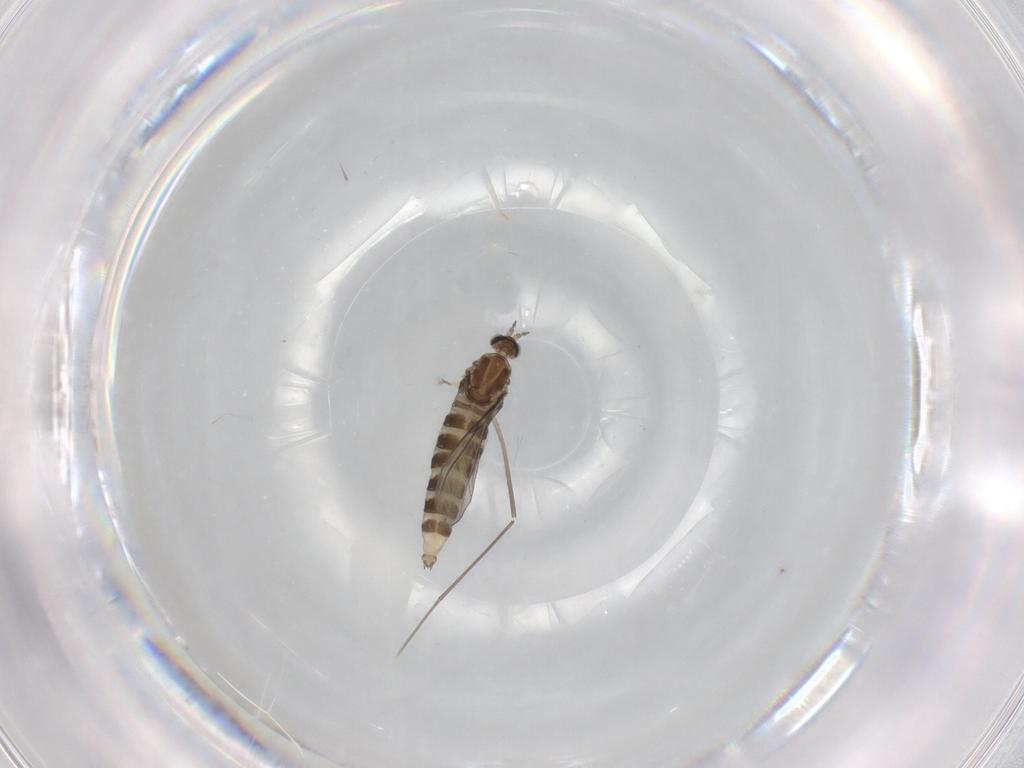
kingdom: Animalia
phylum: Arthropoda
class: Insecta
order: Diptera
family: Cecidomyiidae
